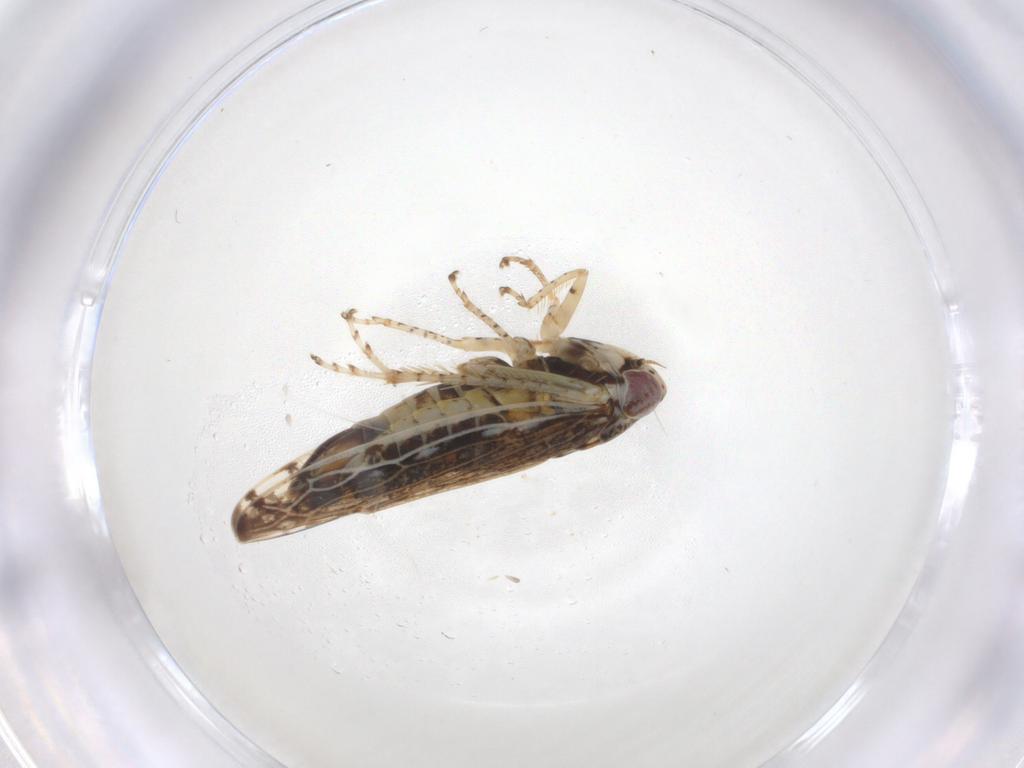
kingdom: Animalia
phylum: Arthropoda
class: Insecta
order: Hemiptera
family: Cicadellidae
